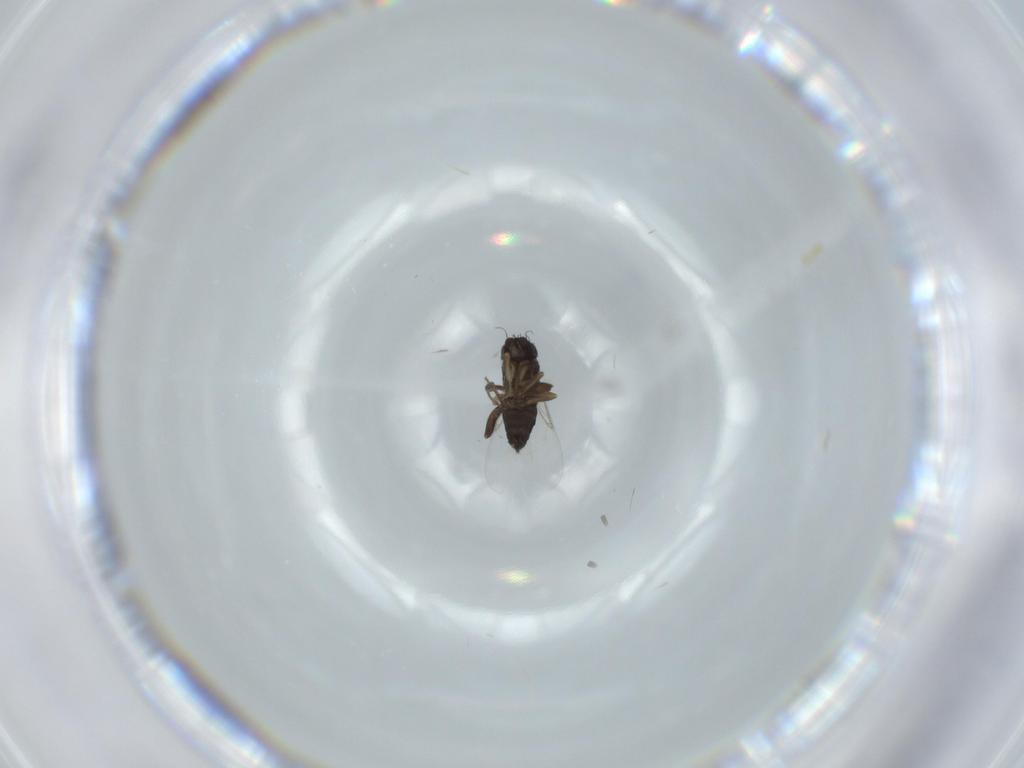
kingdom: Animalia
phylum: Arthropoda
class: Insecta
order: Diptera
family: Phoridae
